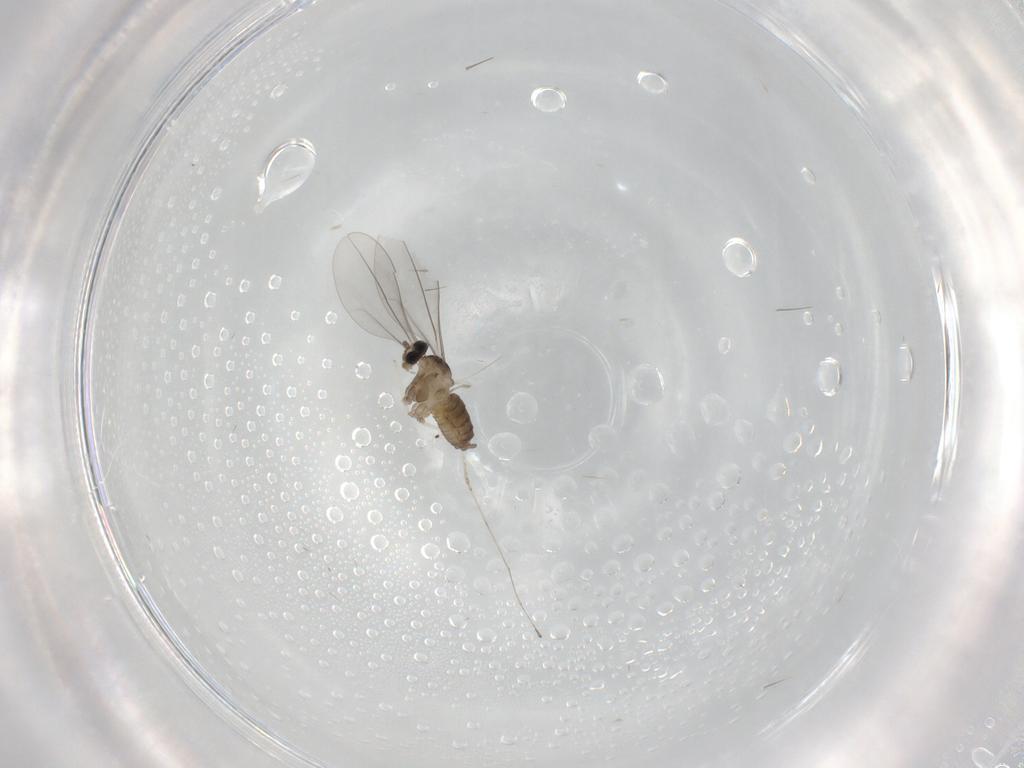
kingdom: Animalia
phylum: Arthropoda
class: Insecta
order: Diptera
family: Cecidomyiidae
